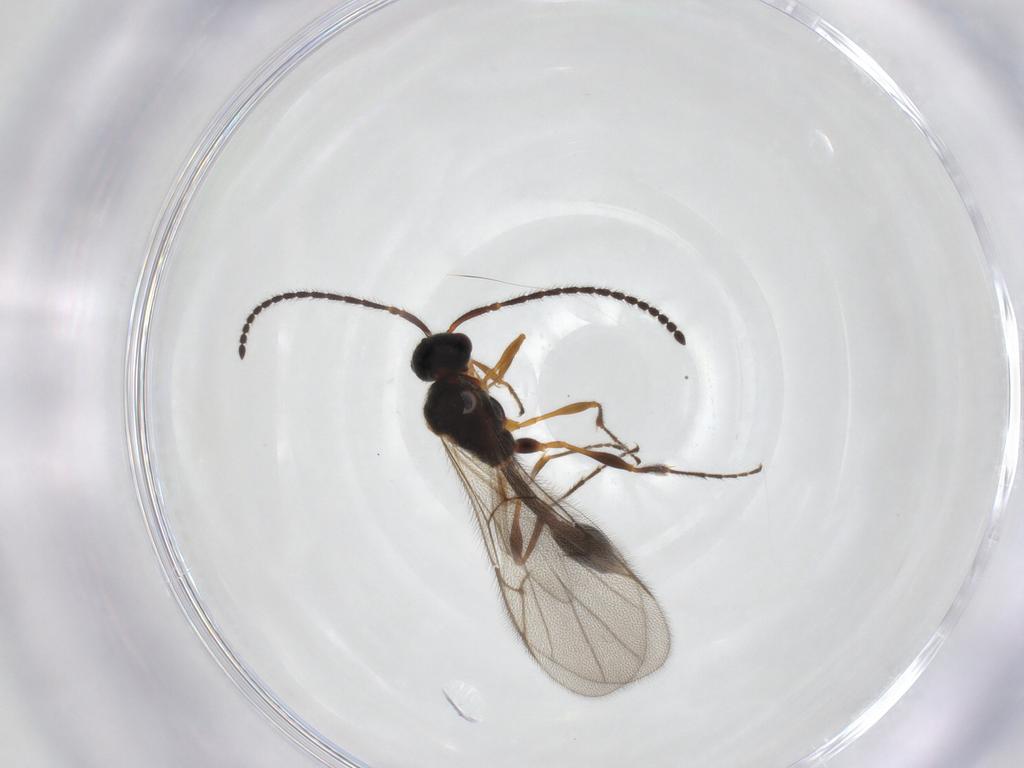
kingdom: Animalia
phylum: Arthropoda
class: Insecta
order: Hymenoptera
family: Diapriidae
